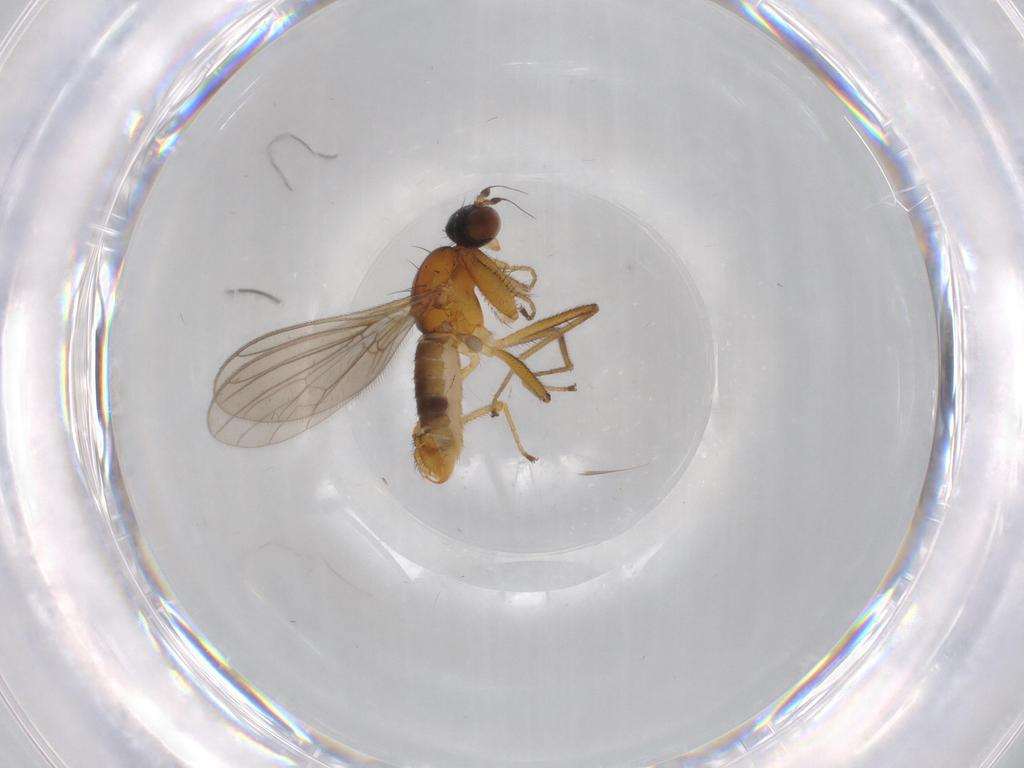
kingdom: Animalia
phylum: Arthropoda
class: Insecta
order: Diptera
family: Empididae
